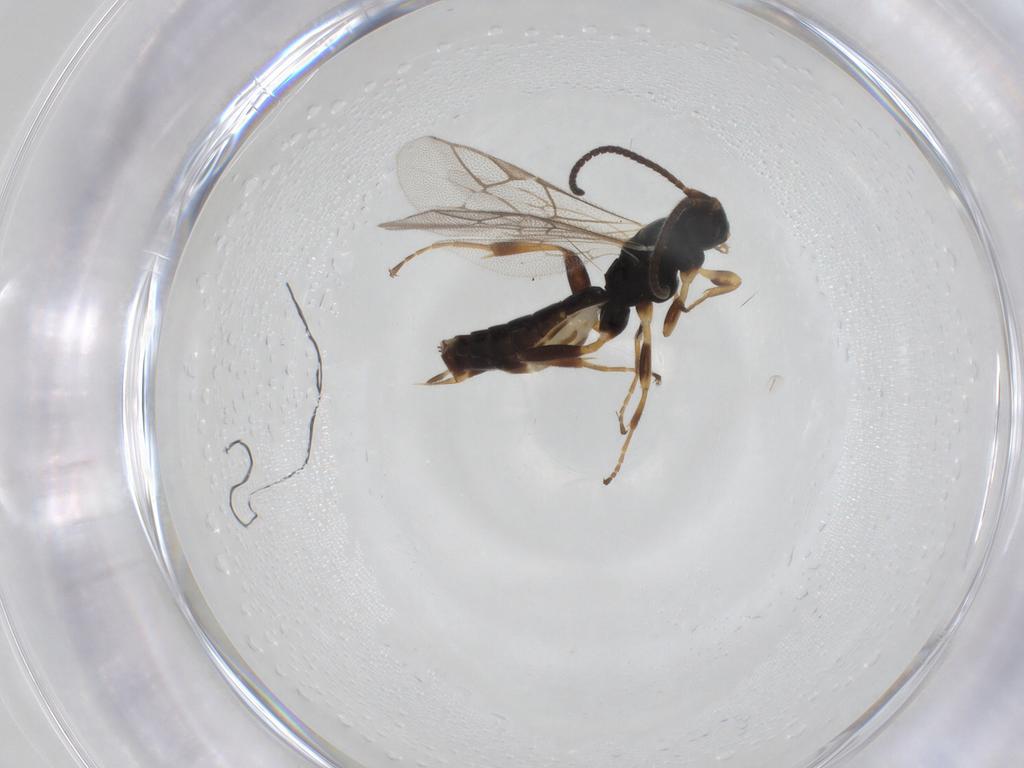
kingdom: Animalia
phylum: Arthropoda
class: Insecta
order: Hymenoptera
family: Ichneumonidae
